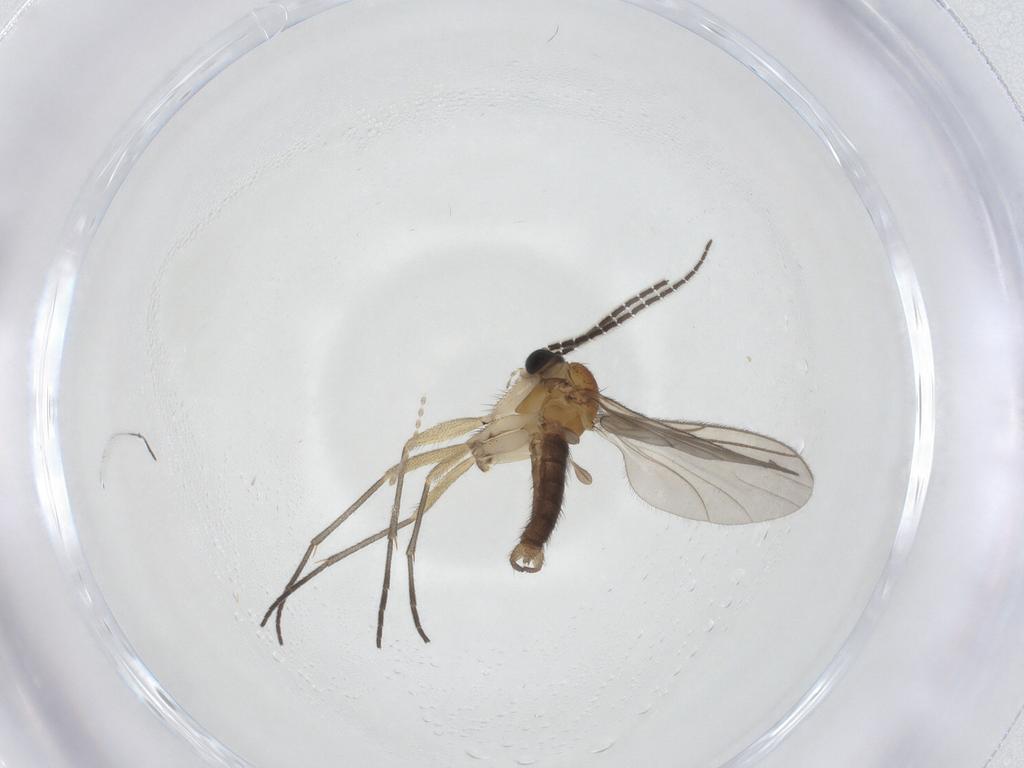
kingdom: Animalia
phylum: Arthropoda
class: Insecta
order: Diptera
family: Sciaridae
